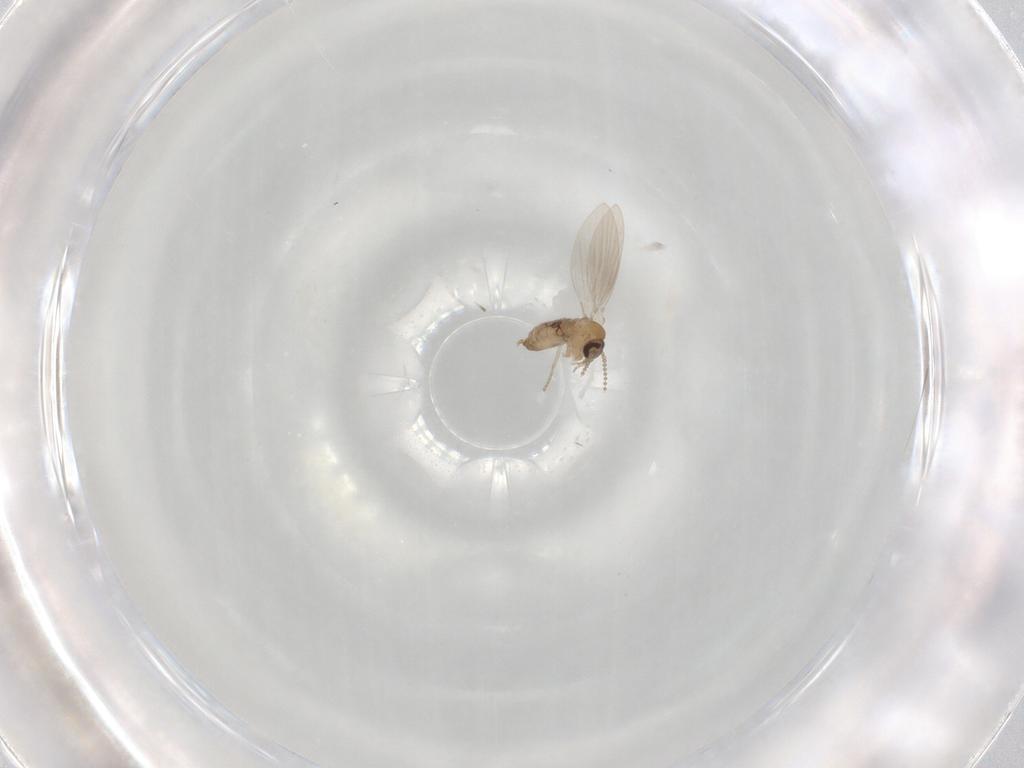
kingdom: Animalia
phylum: Arthropoda
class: Insecta
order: Diptera
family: Psychodidae
